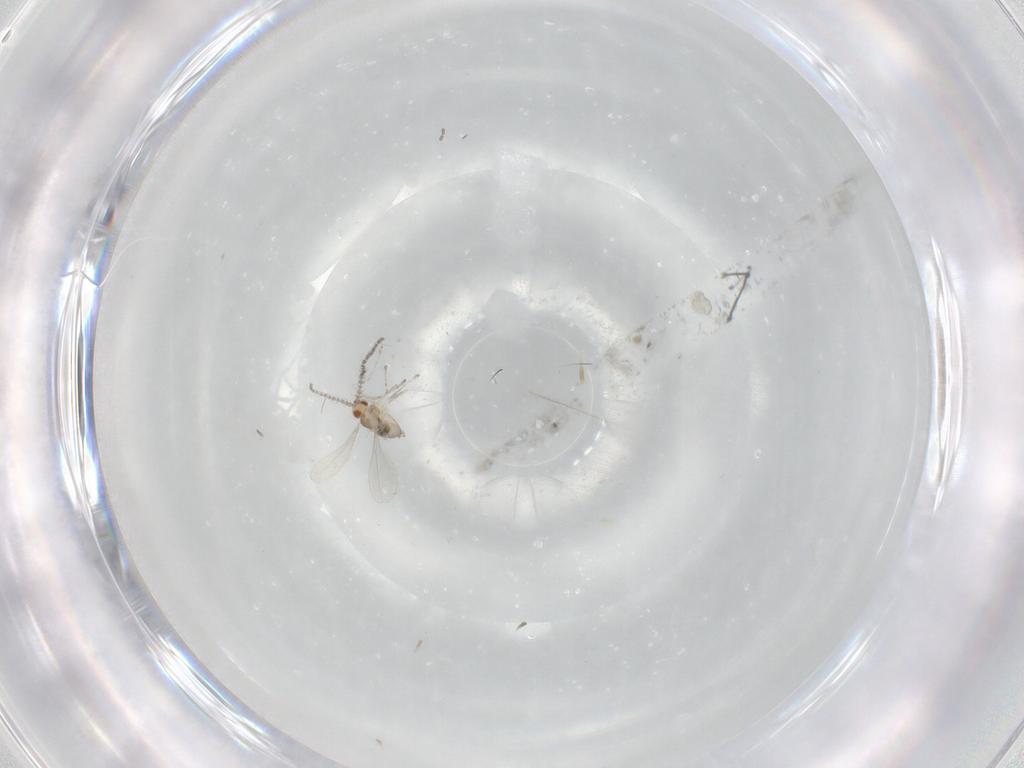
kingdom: Animalia
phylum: Arthropoda
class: Insecta
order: Diptera
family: Cecidomyiidae
